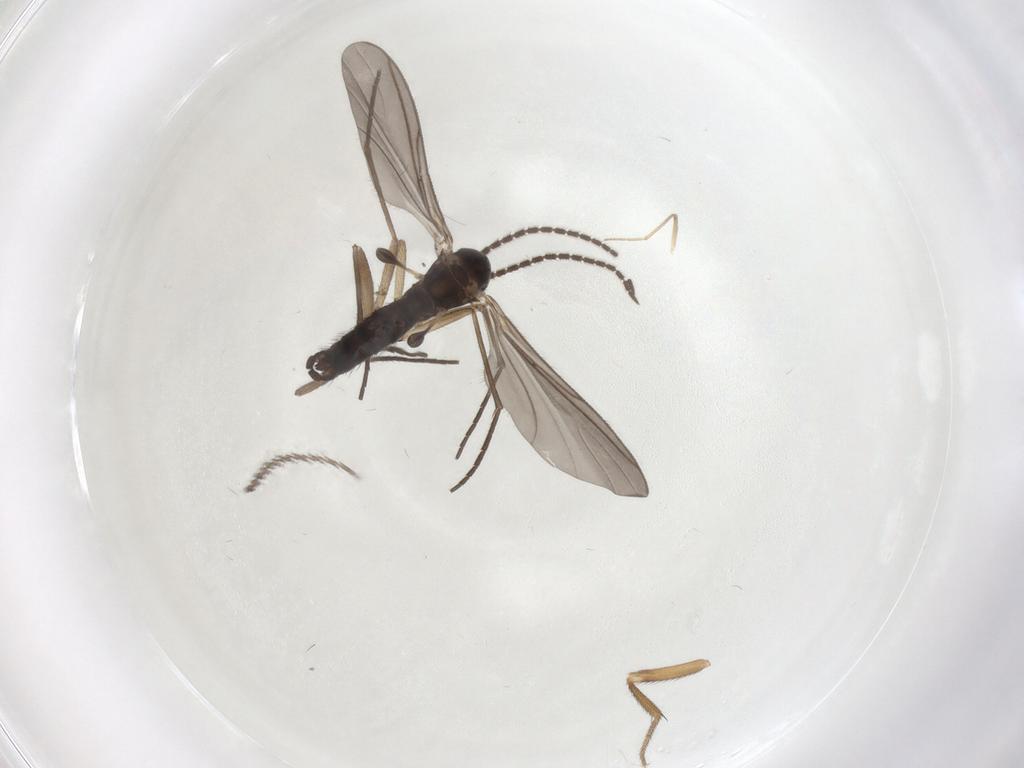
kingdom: Animalia
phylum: Arthropoda
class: Insecta
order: Diptera
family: Sciaridae
